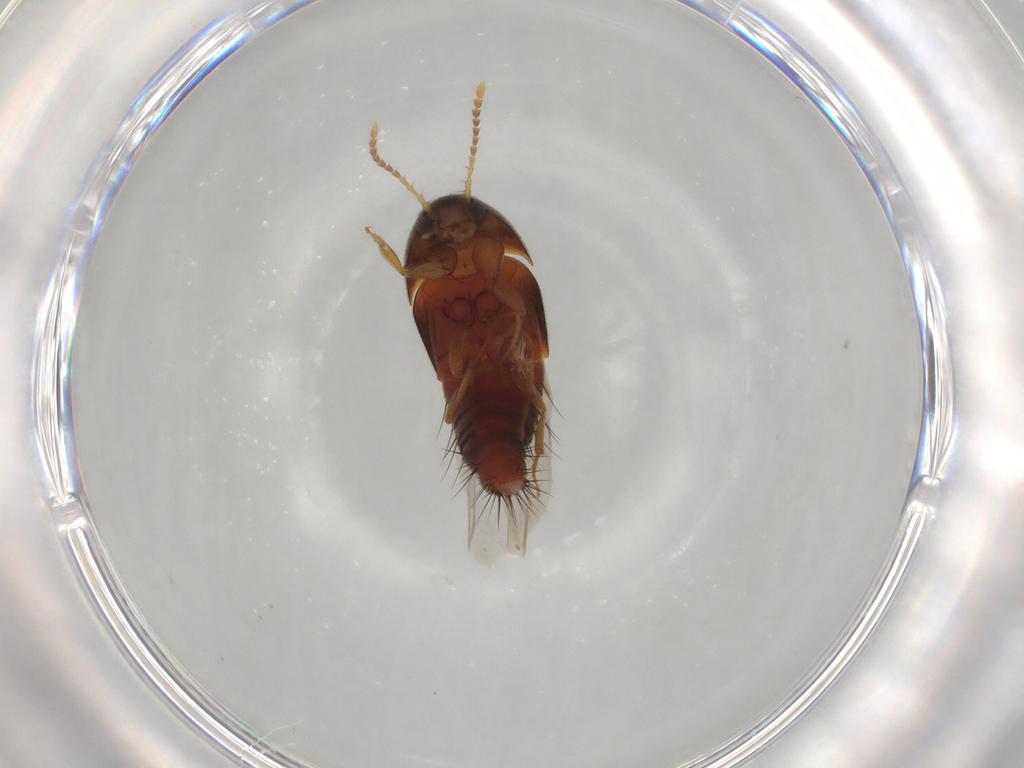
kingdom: Animalia
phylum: Arthropoda
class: Insecta
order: Coleoptera
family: Staphylinidae
